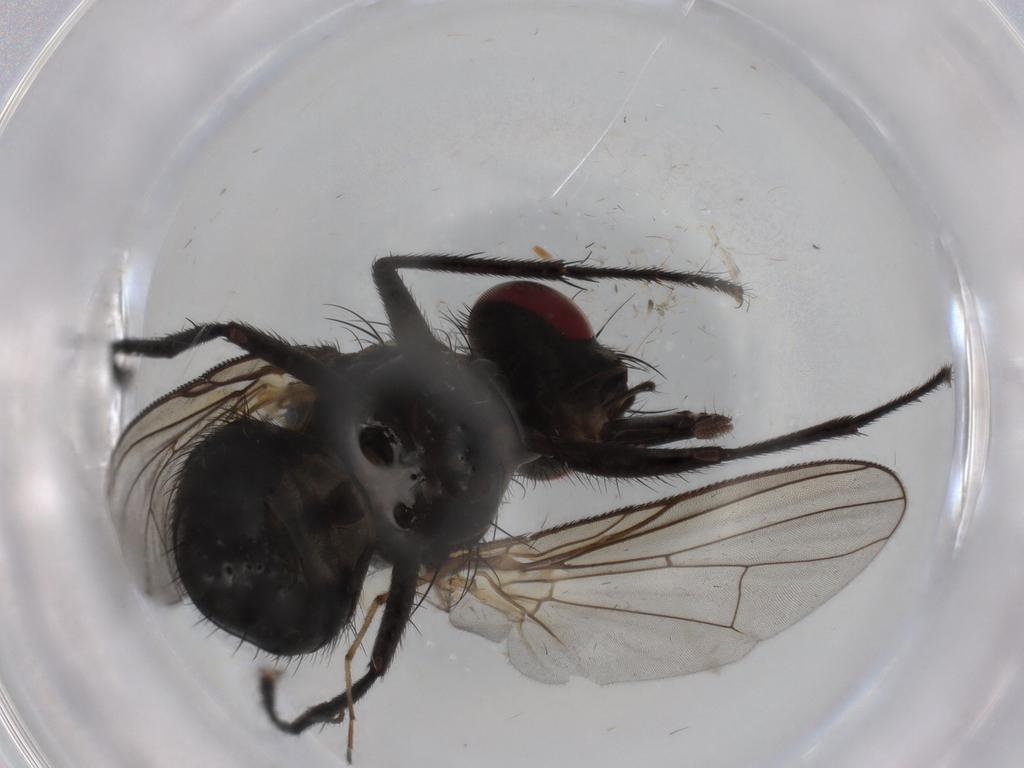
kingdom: Animalia
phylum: Arthropoda
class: Insecta
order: Diptera
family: Muscidae
